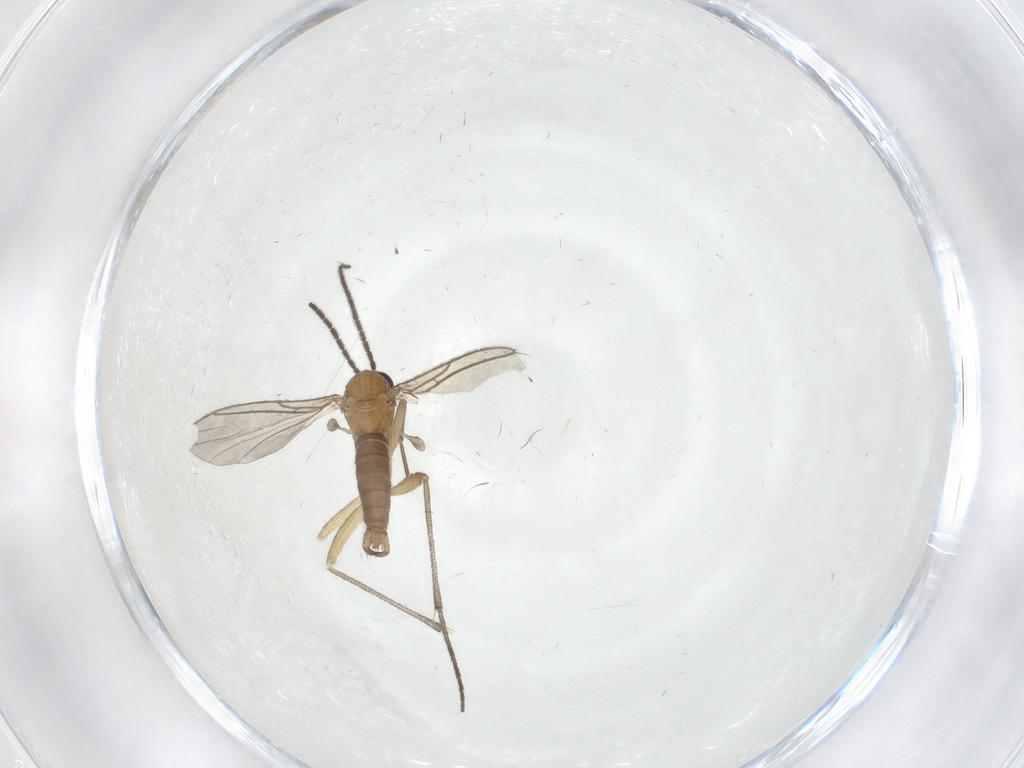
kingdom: Animalia
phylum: Arthropoda
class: Insecta
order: Diptera
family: Sciaridae
